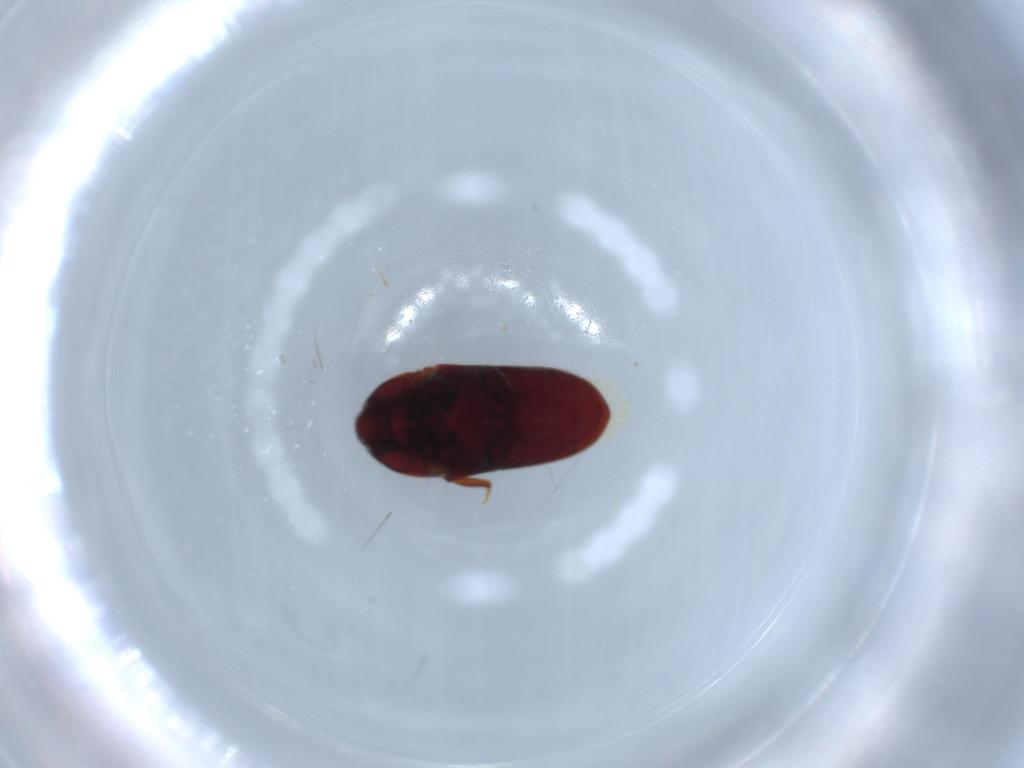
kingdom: Animalia
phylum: Arthropoda
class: Insecta
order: Coleoptera
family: Throscidae
